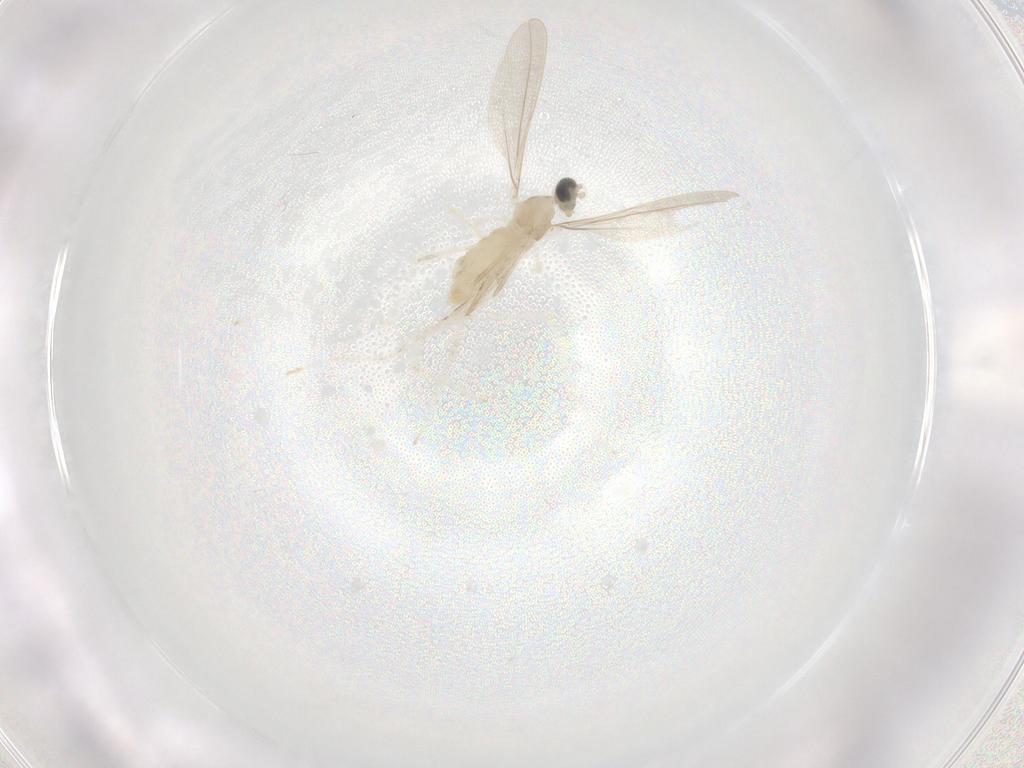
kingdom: Animalia
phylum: Arthropoda
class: Insecta
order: Diptera
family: Cecidomyiidae
